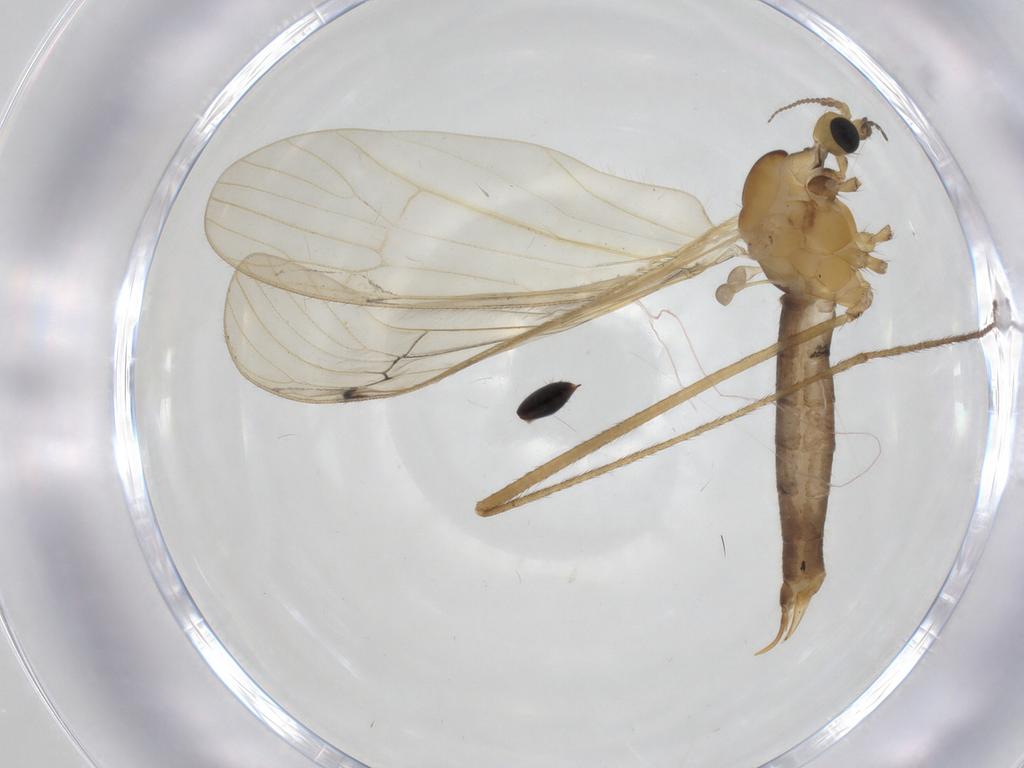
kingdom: Animalia
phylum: Arthropoda
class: Insecta
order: Diptera
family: Limoniidae
